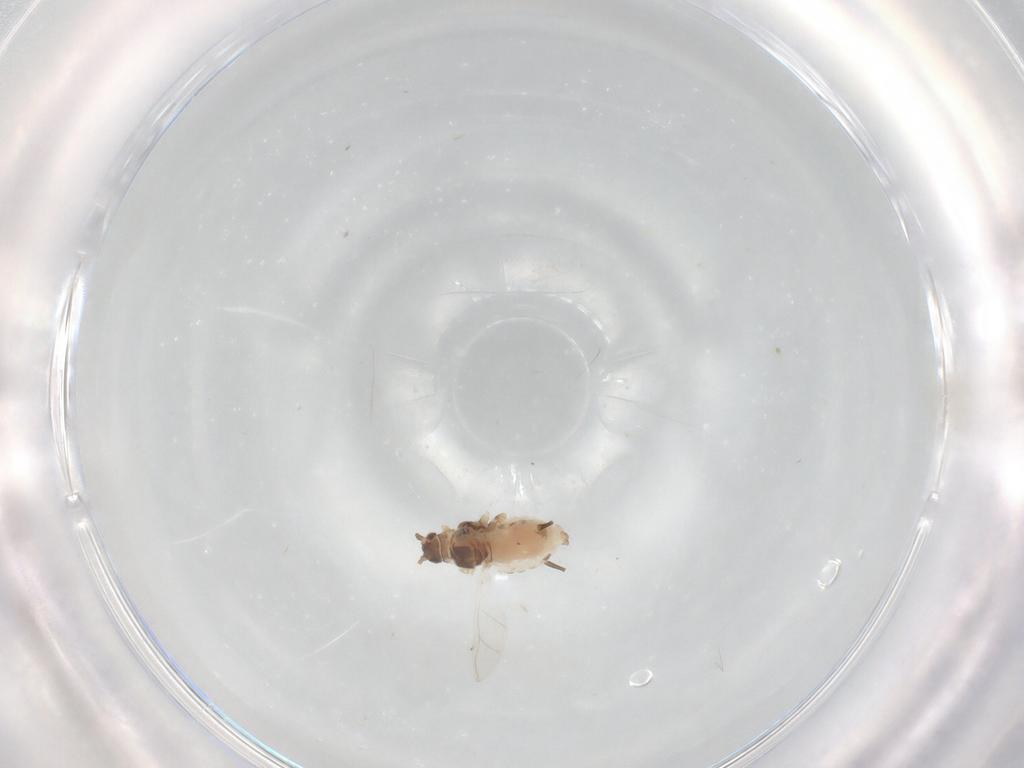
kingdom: Animalia
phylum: Arthropoda
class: Insecta
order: Hemiptera
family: Aphididae
